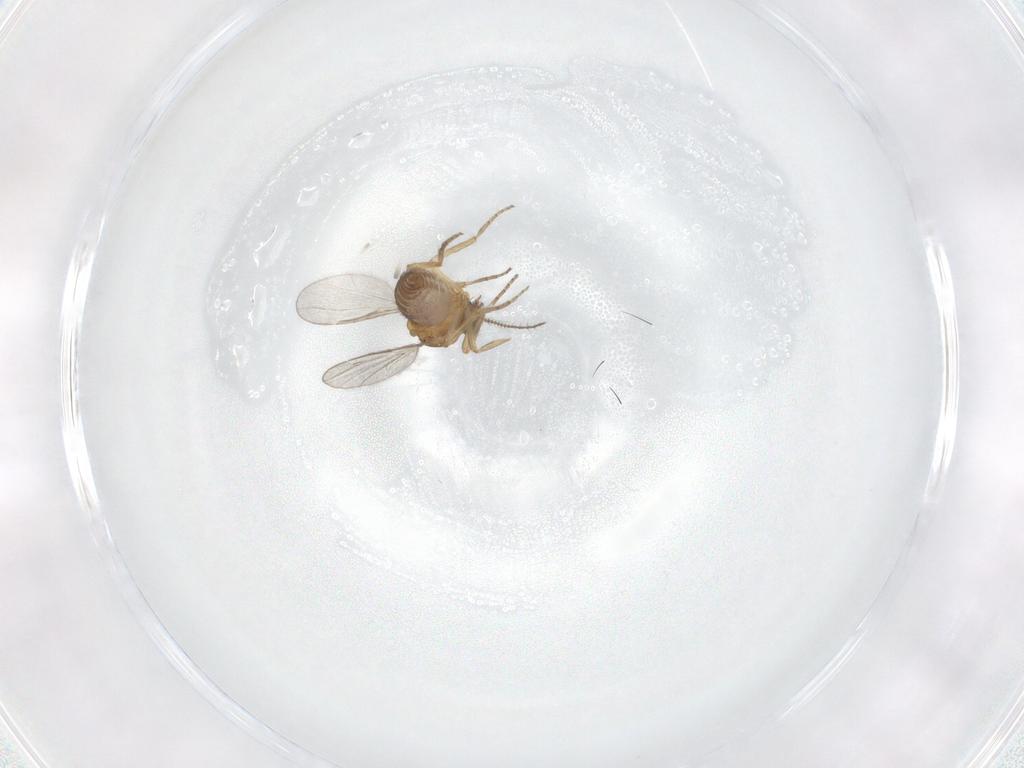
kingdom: Animalia
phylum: Arthropoda
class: Insecta
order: Diptera
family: Ceratopogonidae
